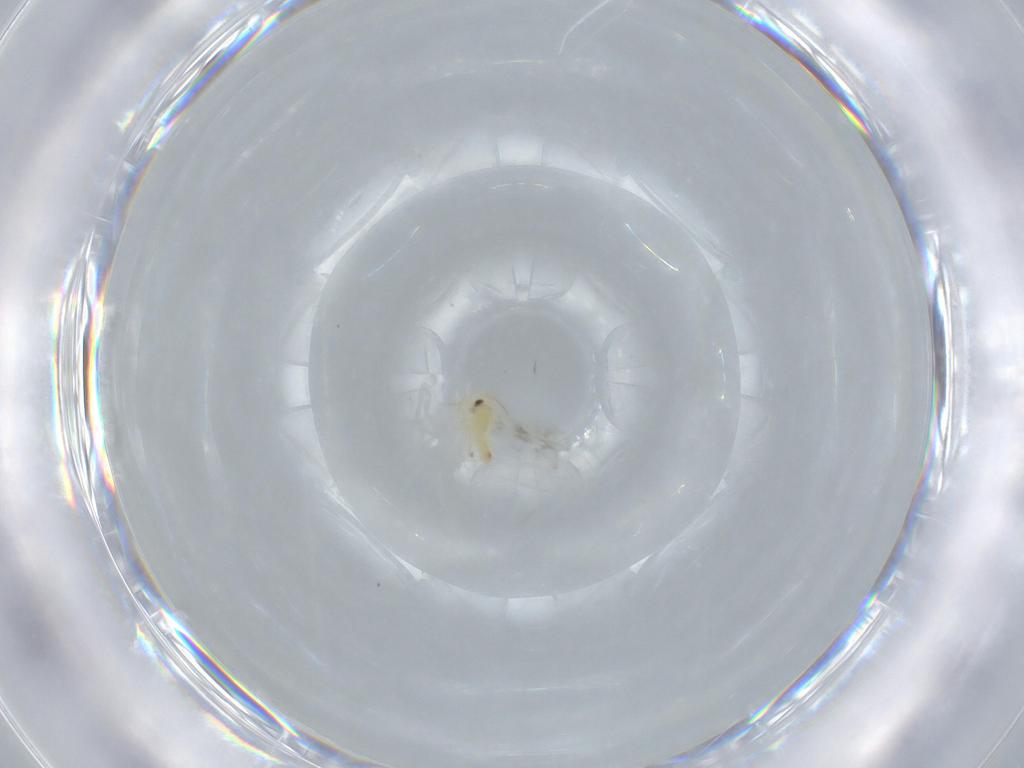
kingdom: Animalia
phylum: Arthropoda
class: Insecta
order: Hemiptera
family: Aleyrodidae
